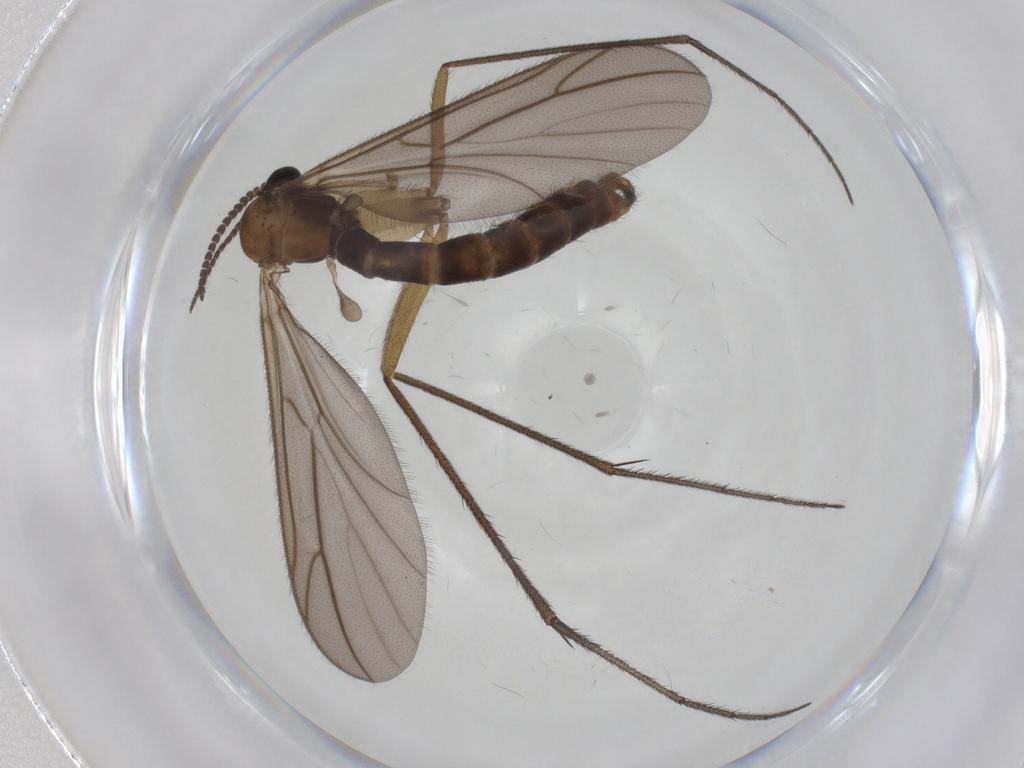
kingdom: Animalia
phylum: Arthropoda
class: Insecta
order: Diptera
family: Ditomyiidae
